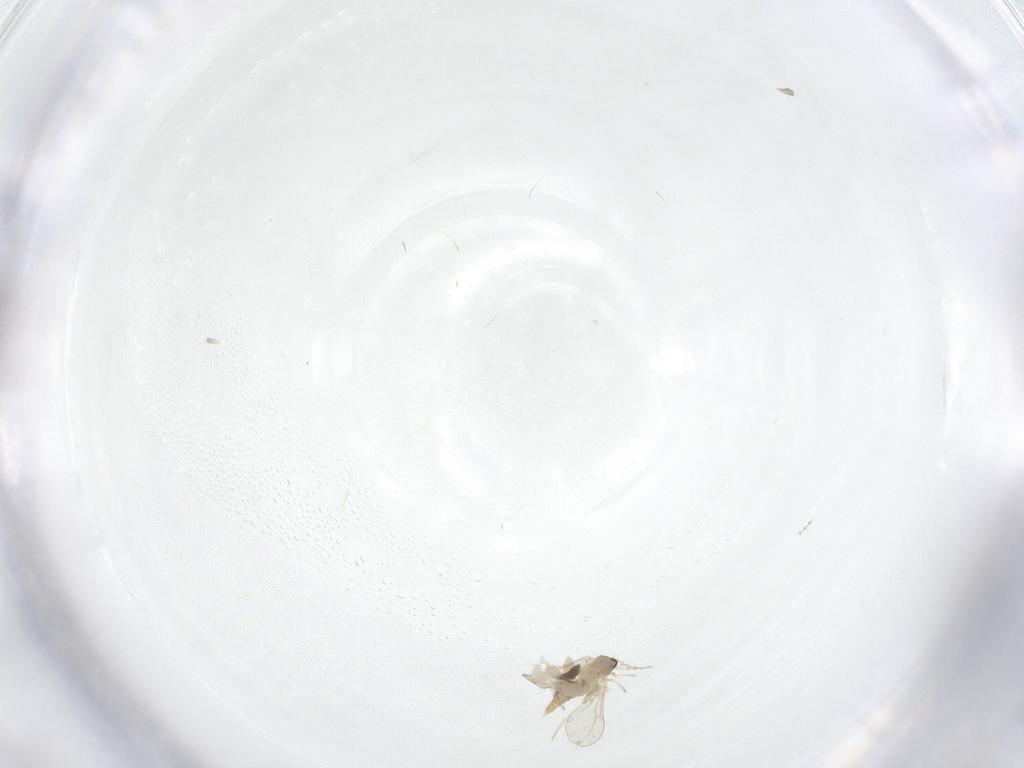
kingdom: Animalia
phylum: Arthropoda
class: Insecta
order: Diptera
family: Sciaridae
